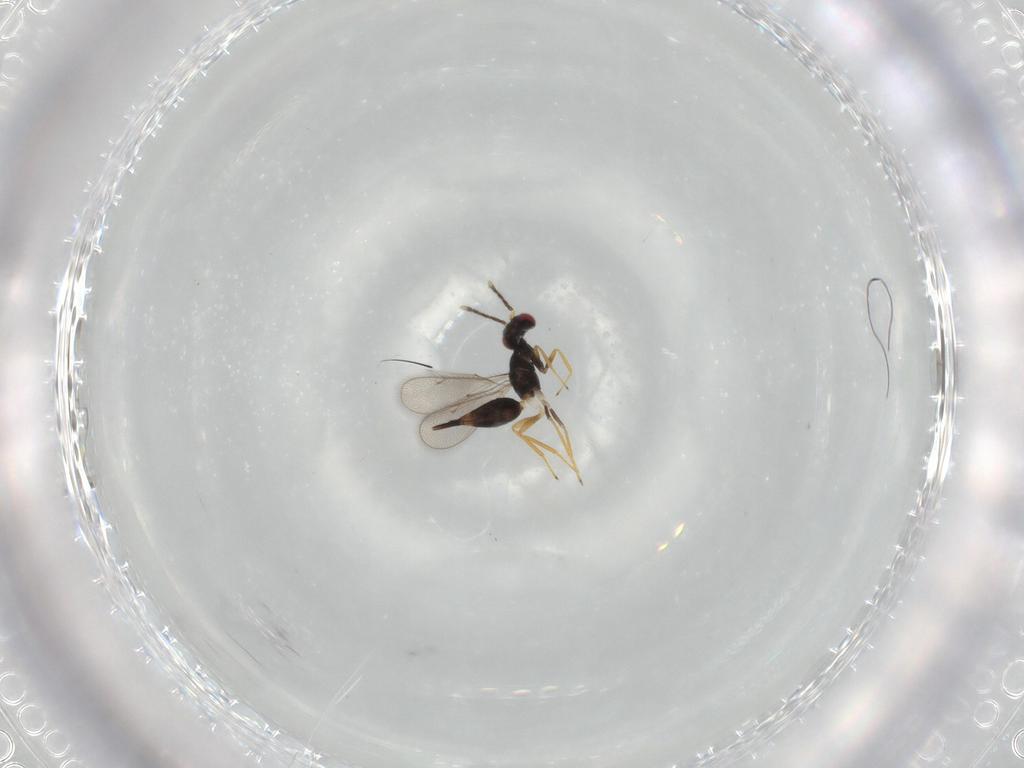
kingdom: Animalia
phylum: Arthropoda
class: Insecta
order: Hymenoptera
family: Eulophidae
